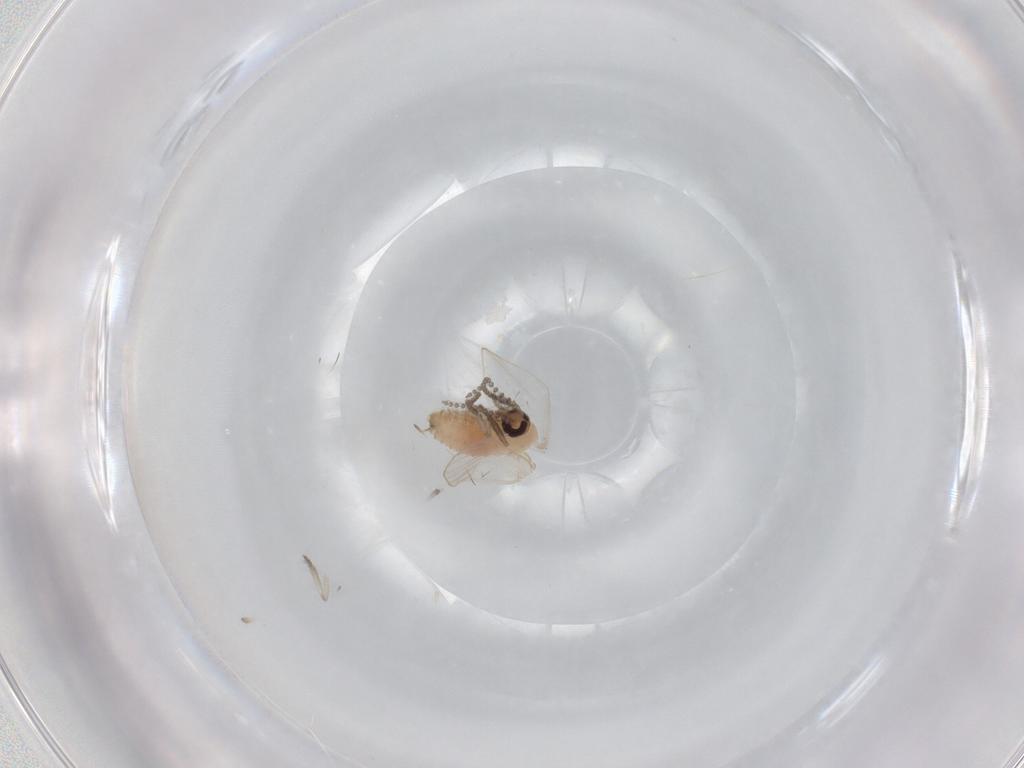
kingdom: Animalia
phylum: Arthropoda
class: Insecta
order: Diptera
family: Psychodidae
